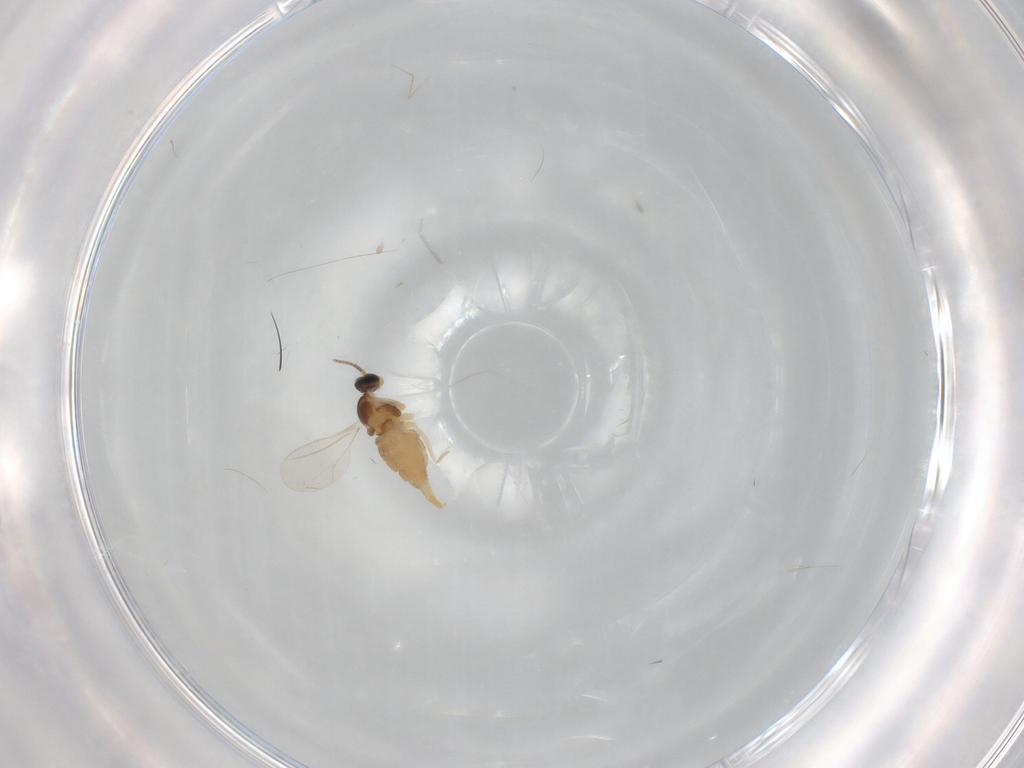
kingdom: Animalia
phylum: Arthropoda
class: Insecta
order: Diptera
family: Cecidomyiidae
